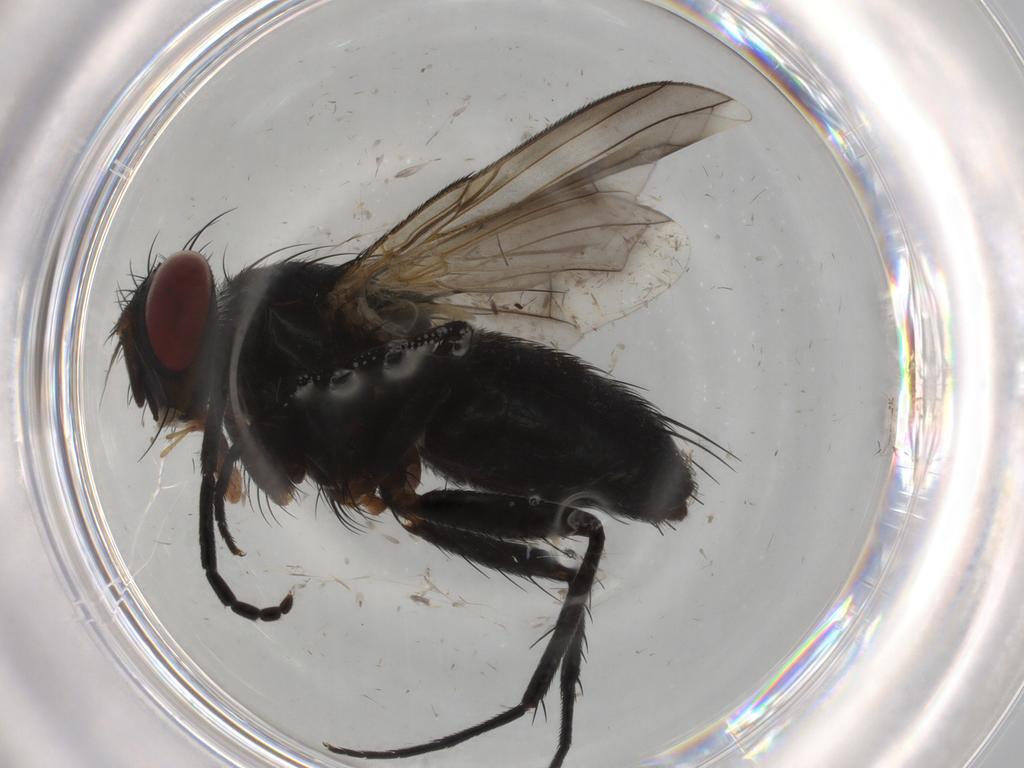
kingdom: Animalia
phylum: Arthropoda
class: Insecta
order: Diptera
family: Muscidae
